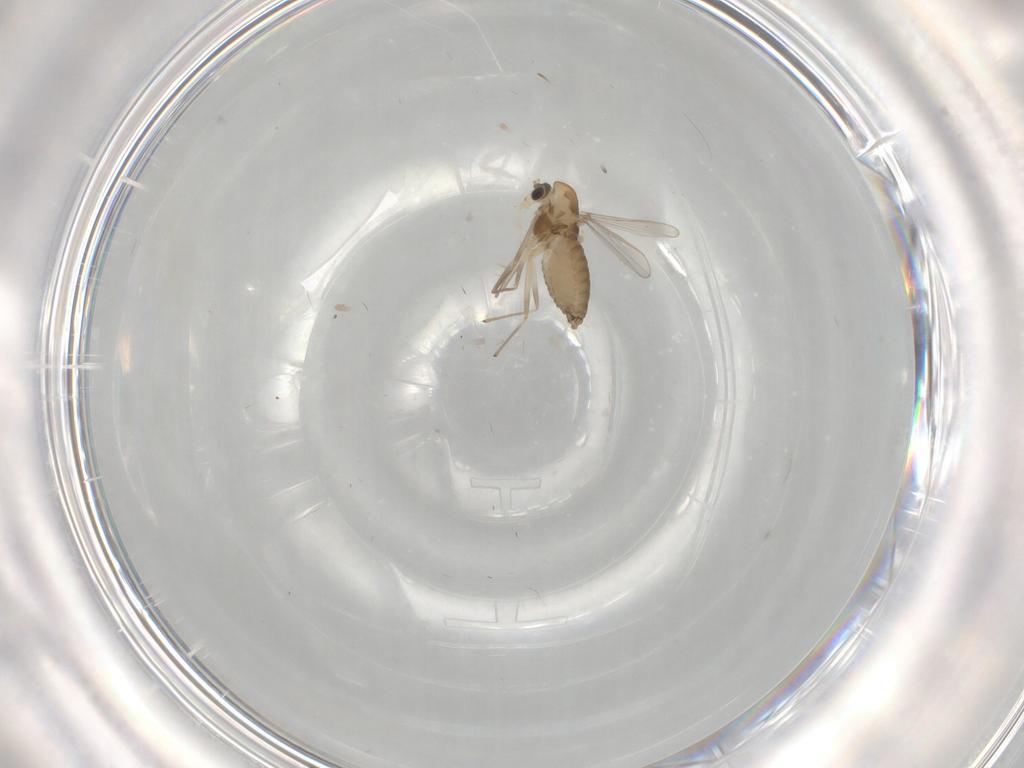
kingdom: Animalia
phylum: Arthropoda
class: Insecta
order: Diptera
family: Chironomidae
